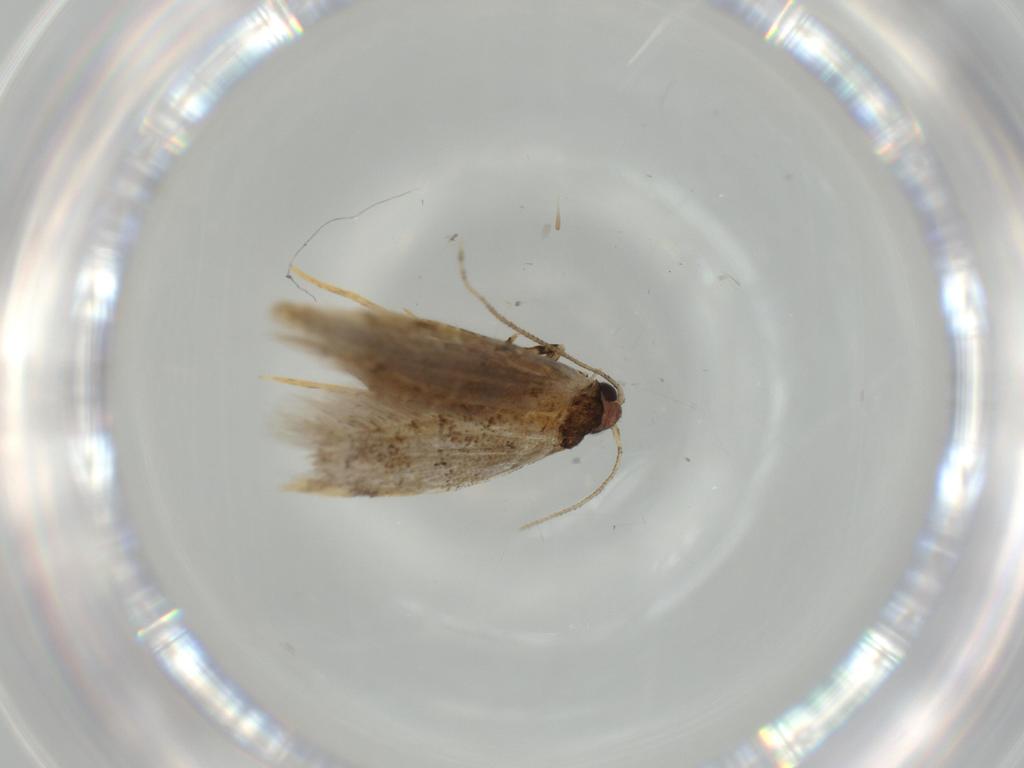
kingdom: Animalia
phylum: Arthropoda
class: Insecta
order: Lepidoptera
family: Tineidae
